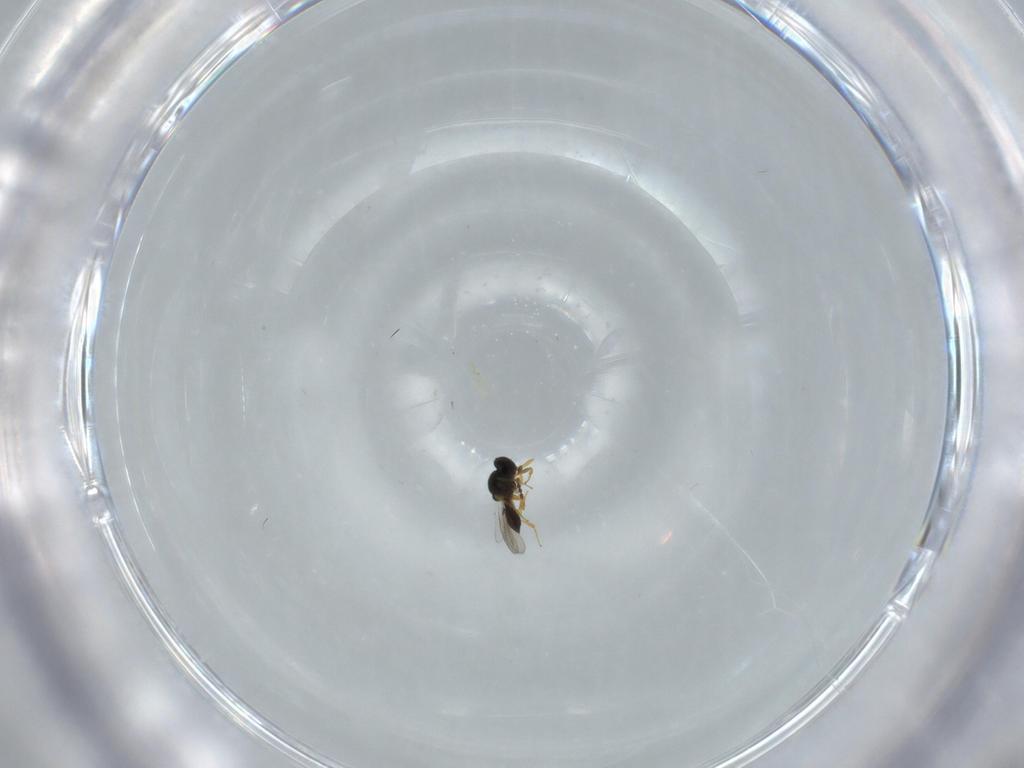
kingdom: Animalia
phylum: Arthropoda
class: Insecta
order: Hymenoptera
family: Platygastridae
